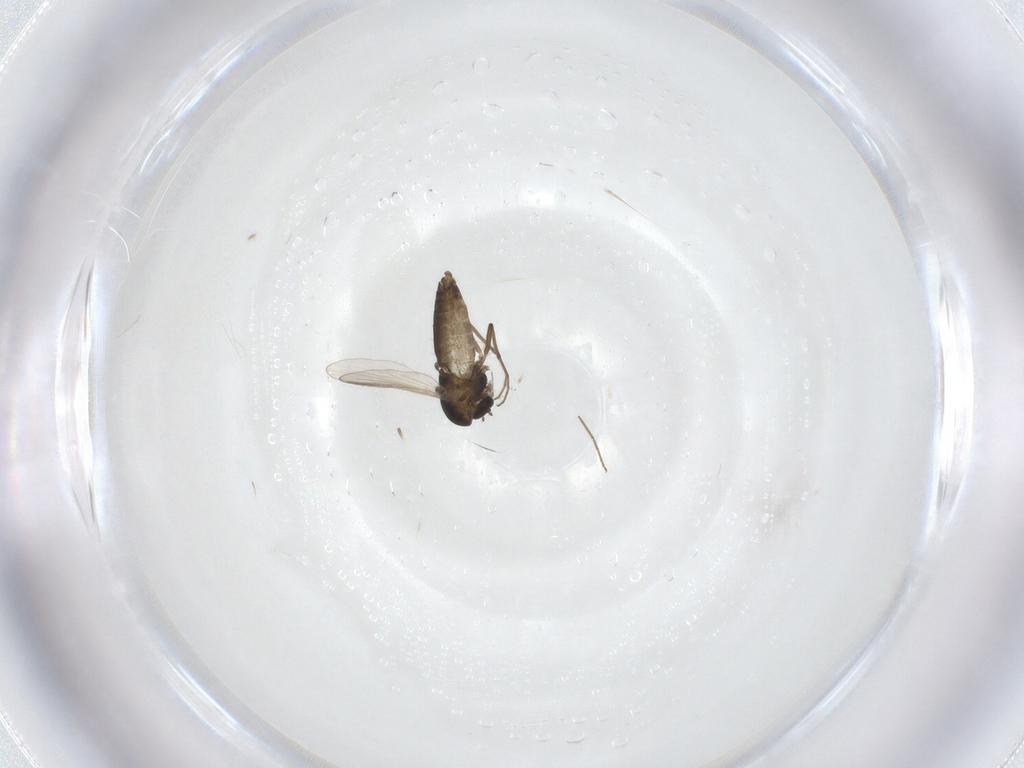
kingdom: Animalia
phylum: Arthropoda
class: Insecta
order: Diptera
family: Chironomidae
